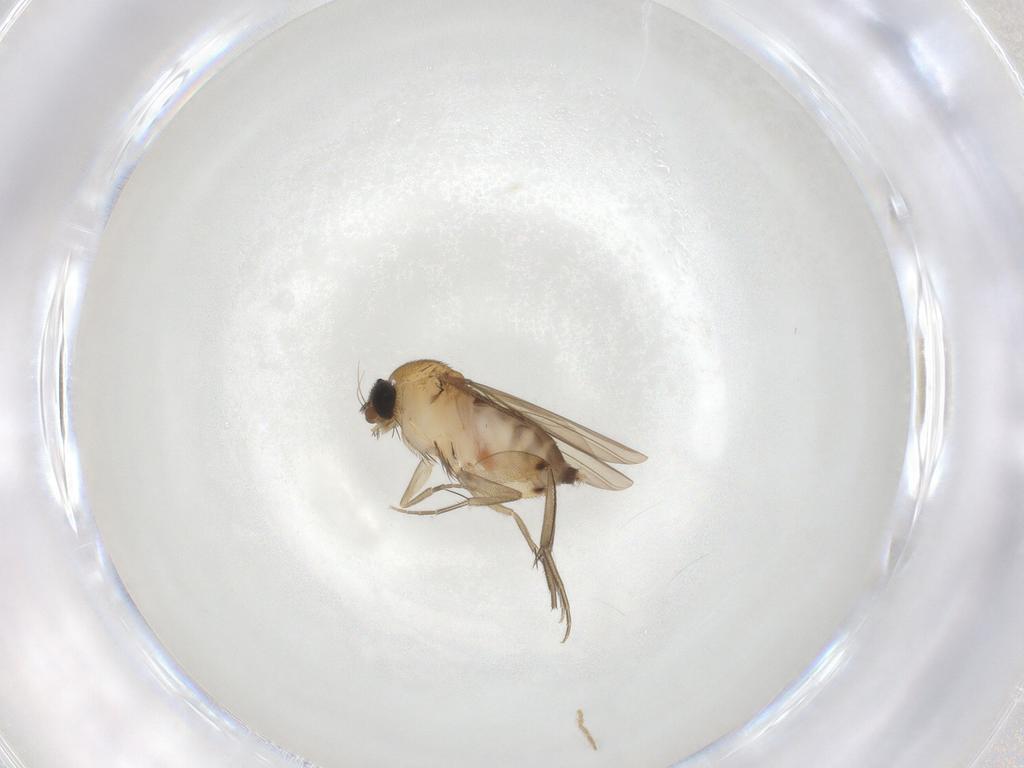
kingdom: Animalia
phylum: Arthropoda
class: Insecta
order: Diptera
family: Phoridae
